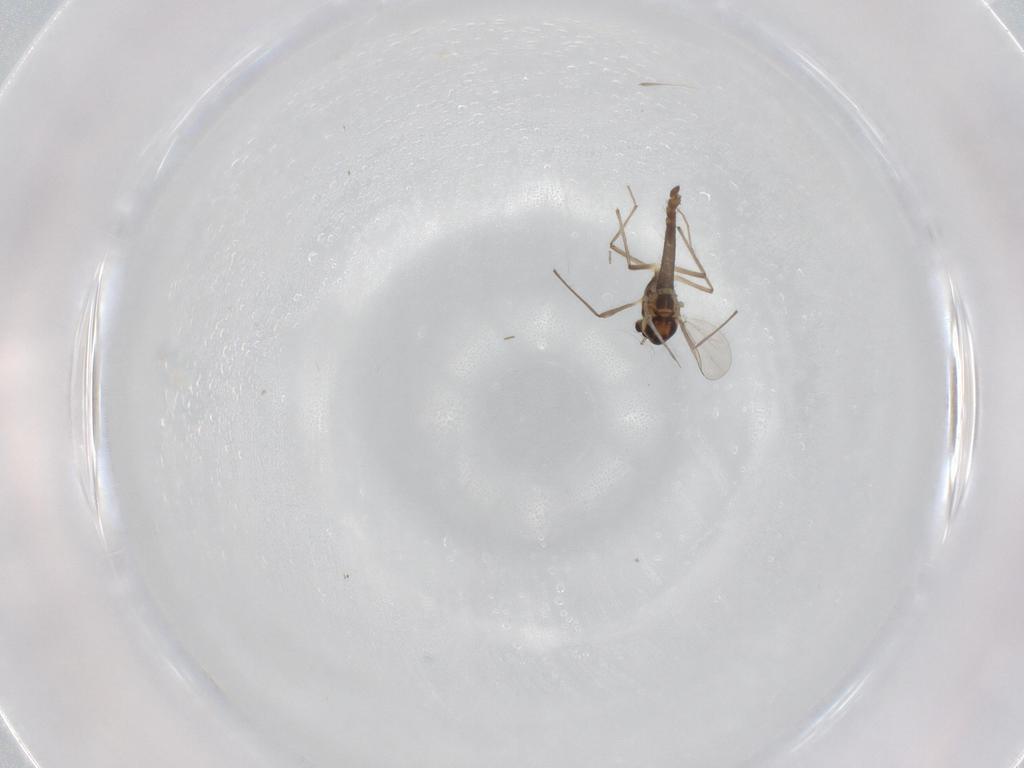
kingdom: Animalia
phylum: Arthropoda
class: Insecta
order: Diptera
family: Chironomidae
